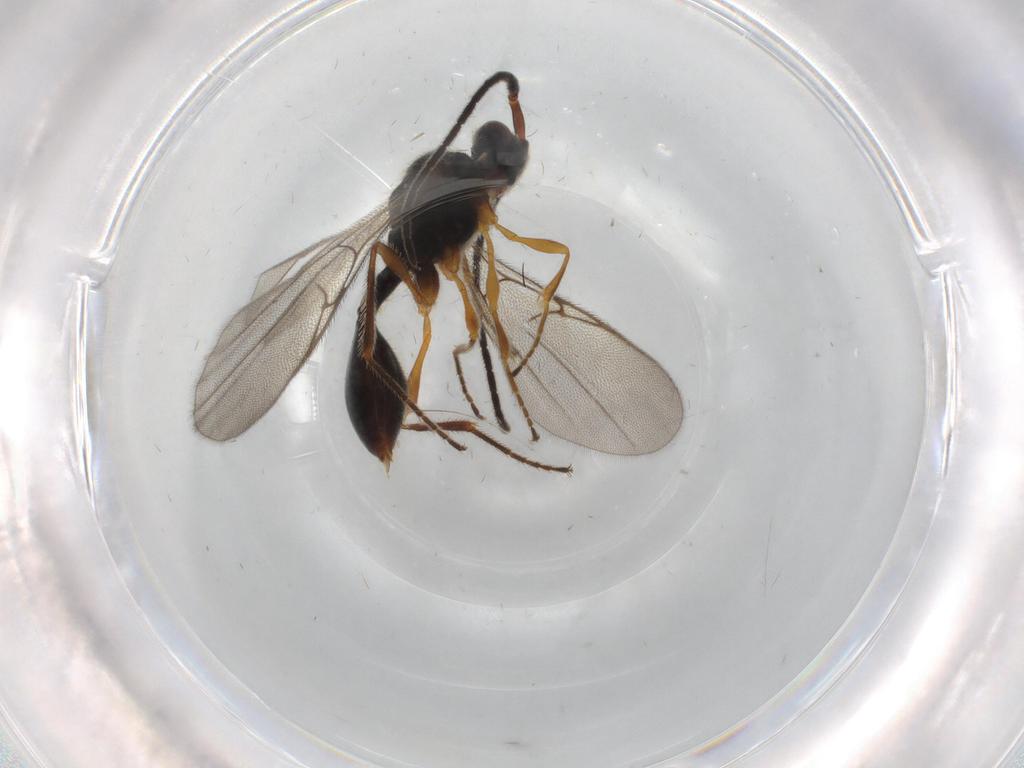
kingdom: Animalia
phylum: Arthropoda
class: Insecta
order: Hymenoptera
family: Diapriidae
